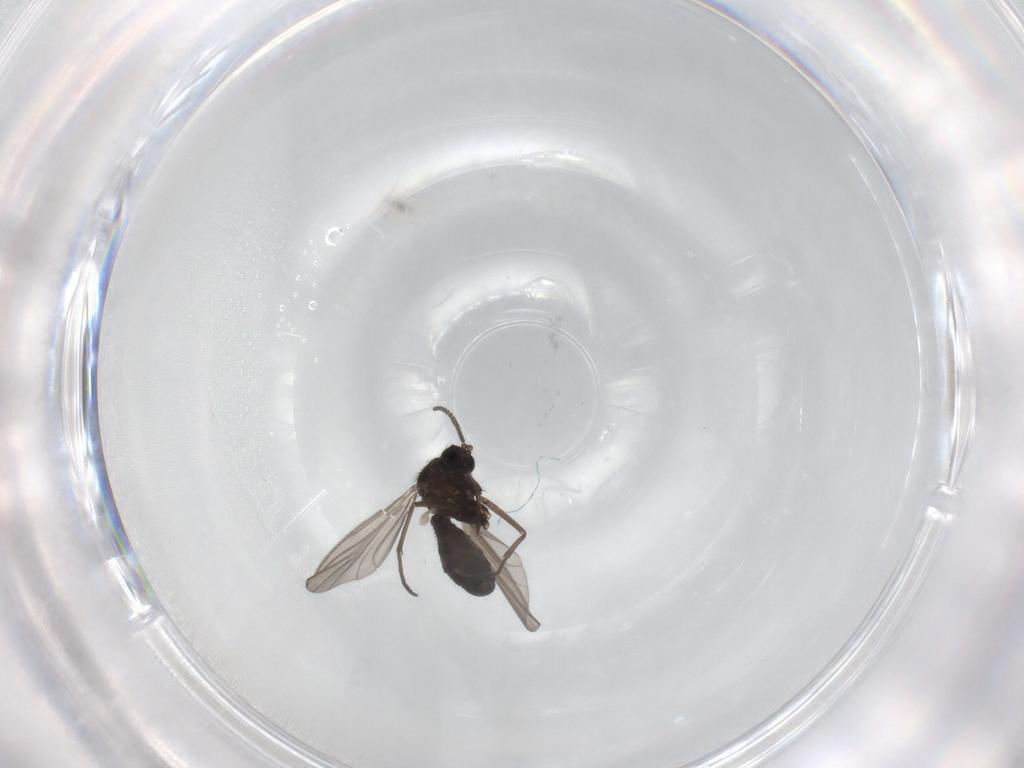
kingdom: Animalia
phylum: Arthropoda
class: Insecta
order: Diptera
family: Keroplatidae
